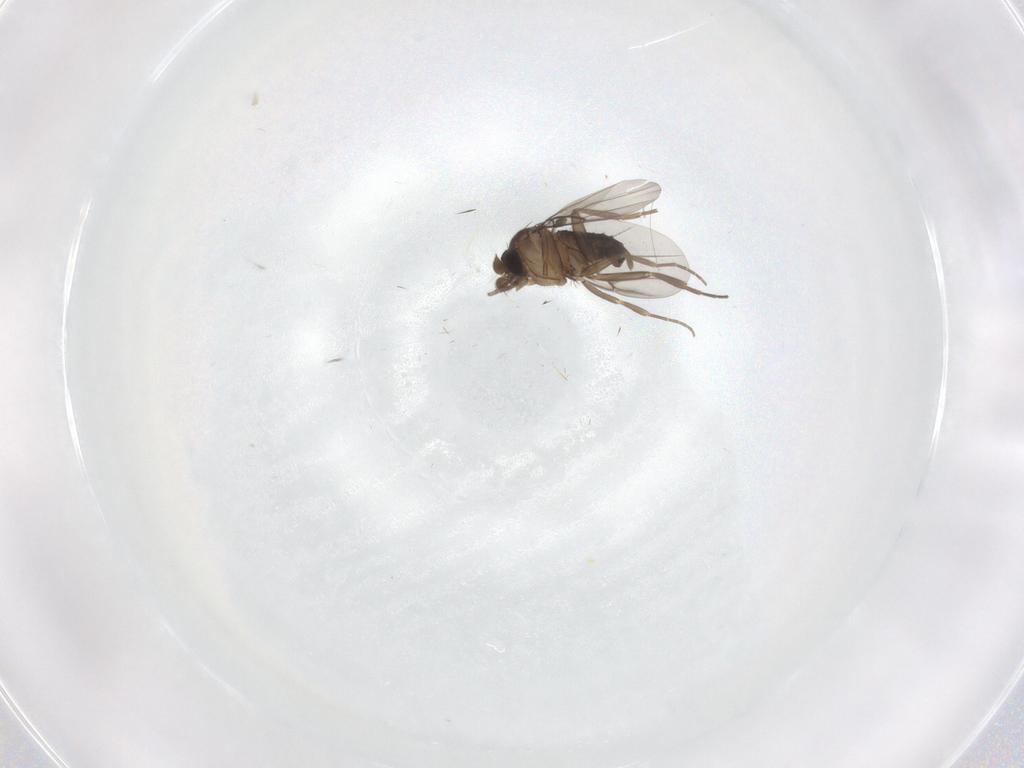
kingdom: Animalia
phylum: Arthropoda
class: Insecta
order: Diptera
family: Phoridae
